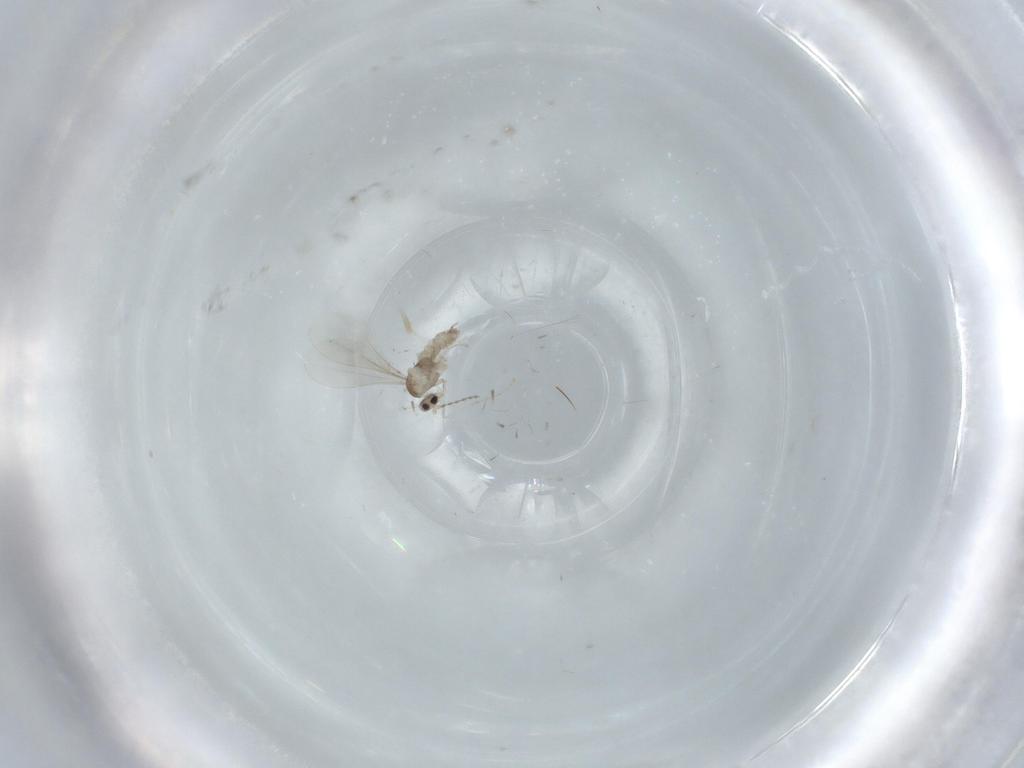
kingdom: Animalia
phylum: Arthropoda
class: Insecta
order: Diptera
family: Cecidomyiidae
